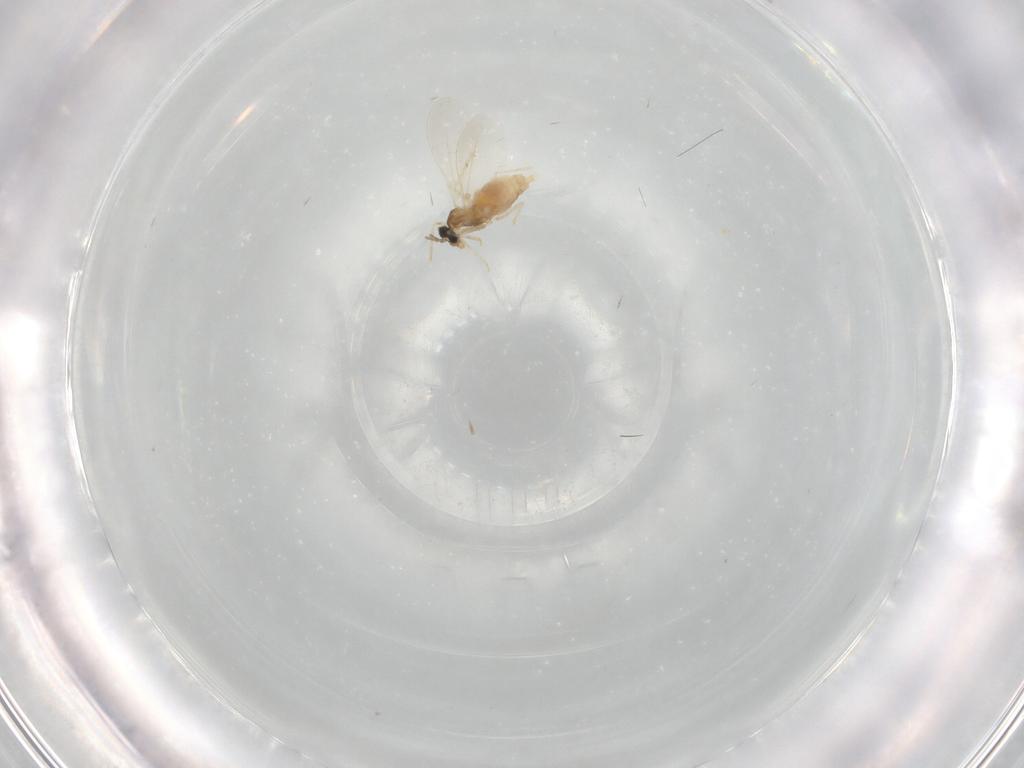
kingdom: Animalia
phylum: Arthropoda
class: Insecta
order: Diptera
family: Cecidomyiidae
